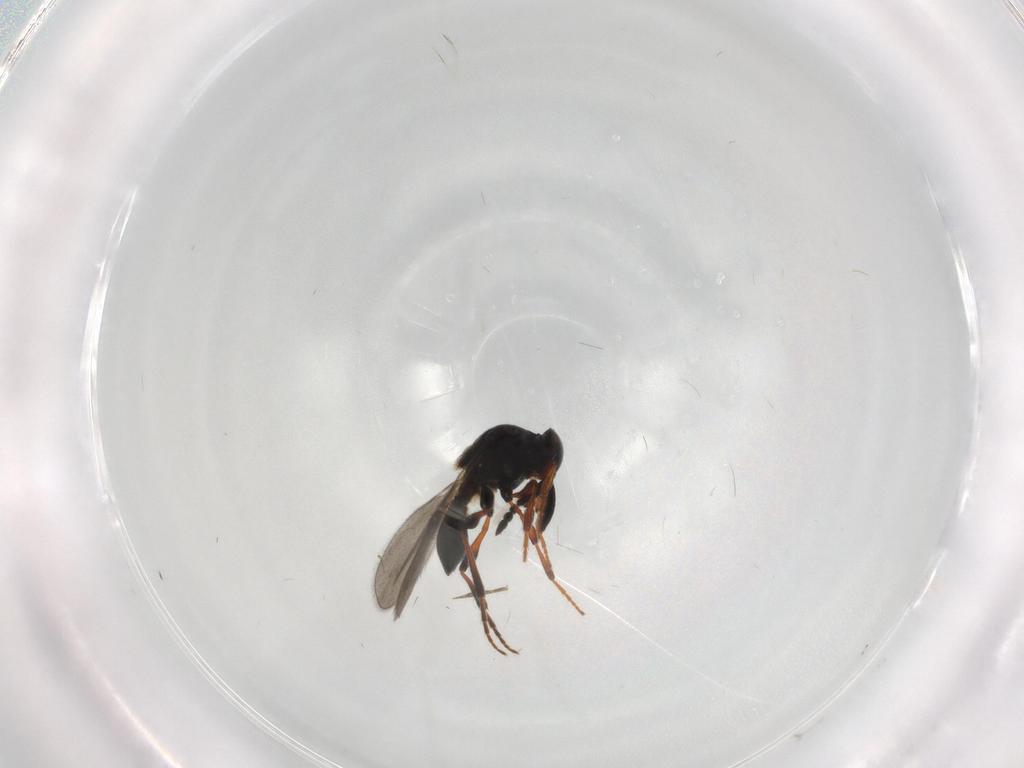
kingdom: Animalia
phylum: Arthropoda
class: Insecta
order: Hymenoptera
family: Platygastridae
